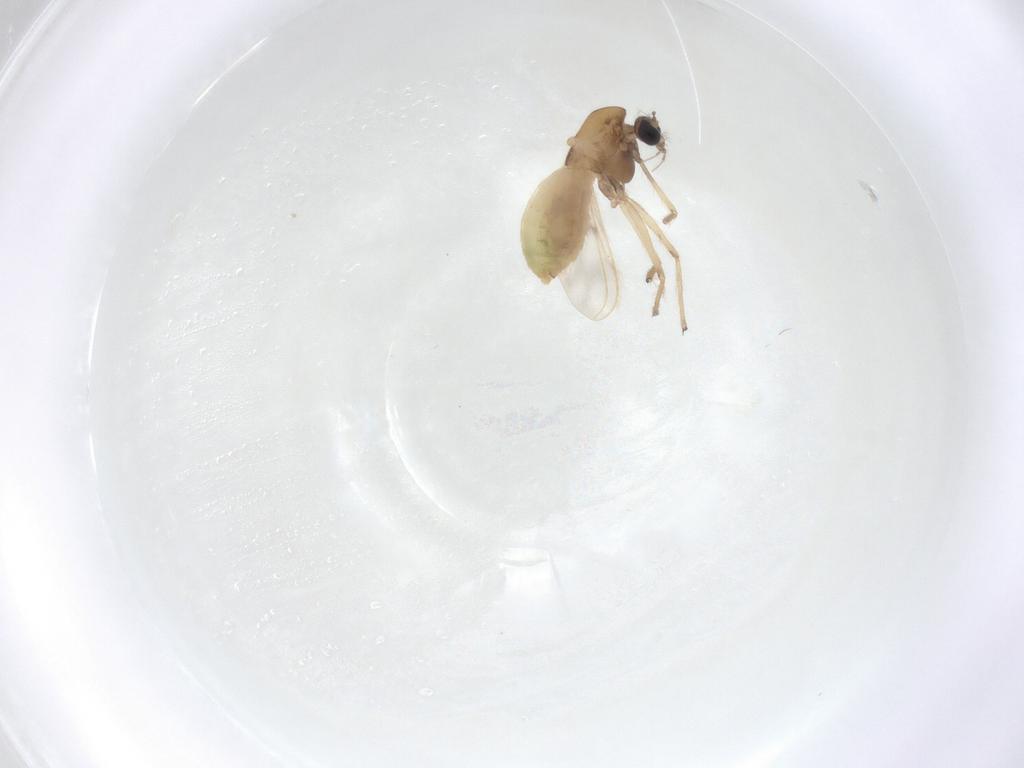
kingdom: Animalia
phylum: Arthropoda
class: Insecta
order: Diptera
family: Chironomidae
